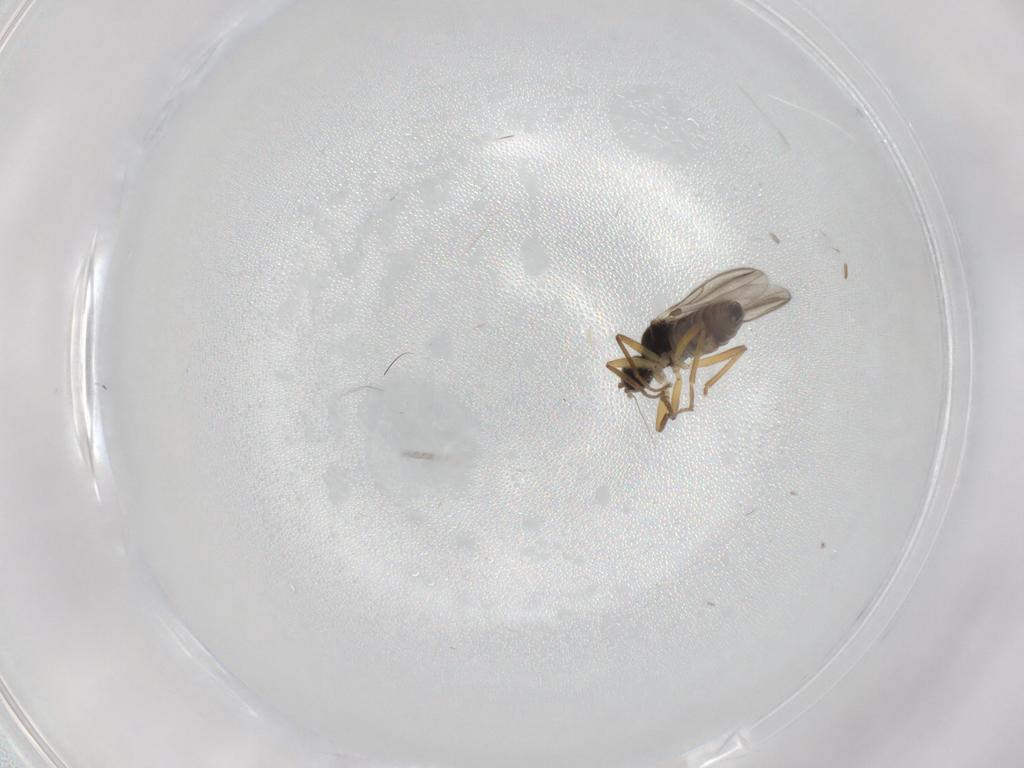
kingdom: Animalia
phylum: Arthropoda
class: Insecta
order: Diptera
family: Hybotidae
